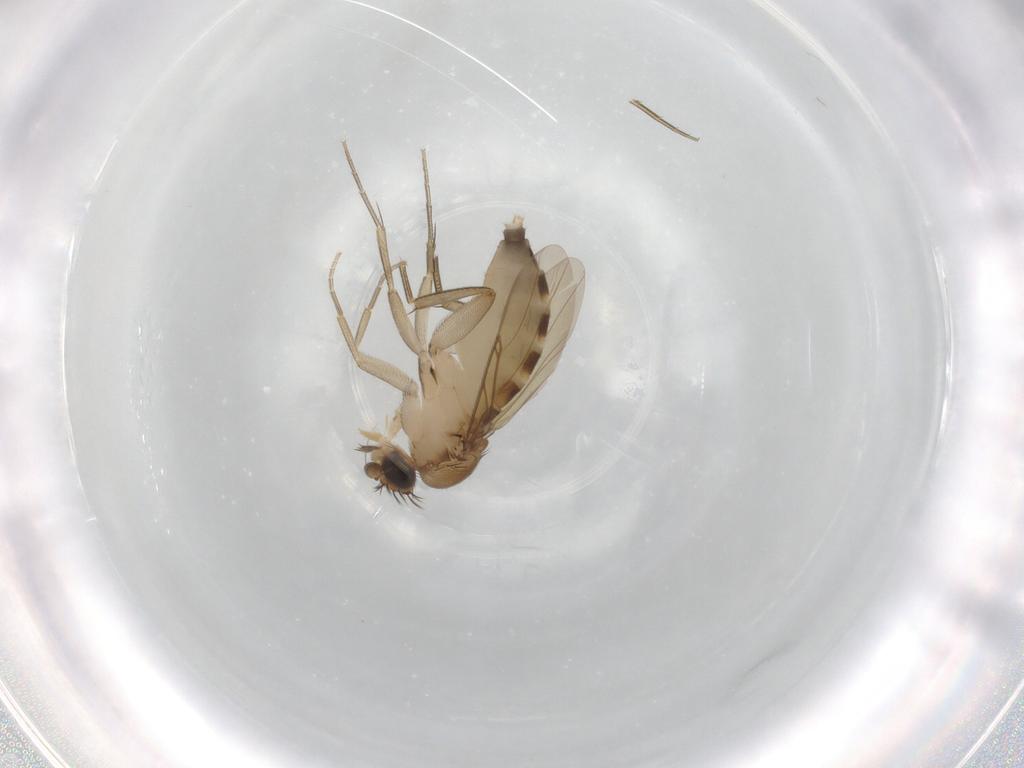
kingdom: Animalia
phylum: Arthropoda
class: Insecta
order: Diptera
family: Phoridae
